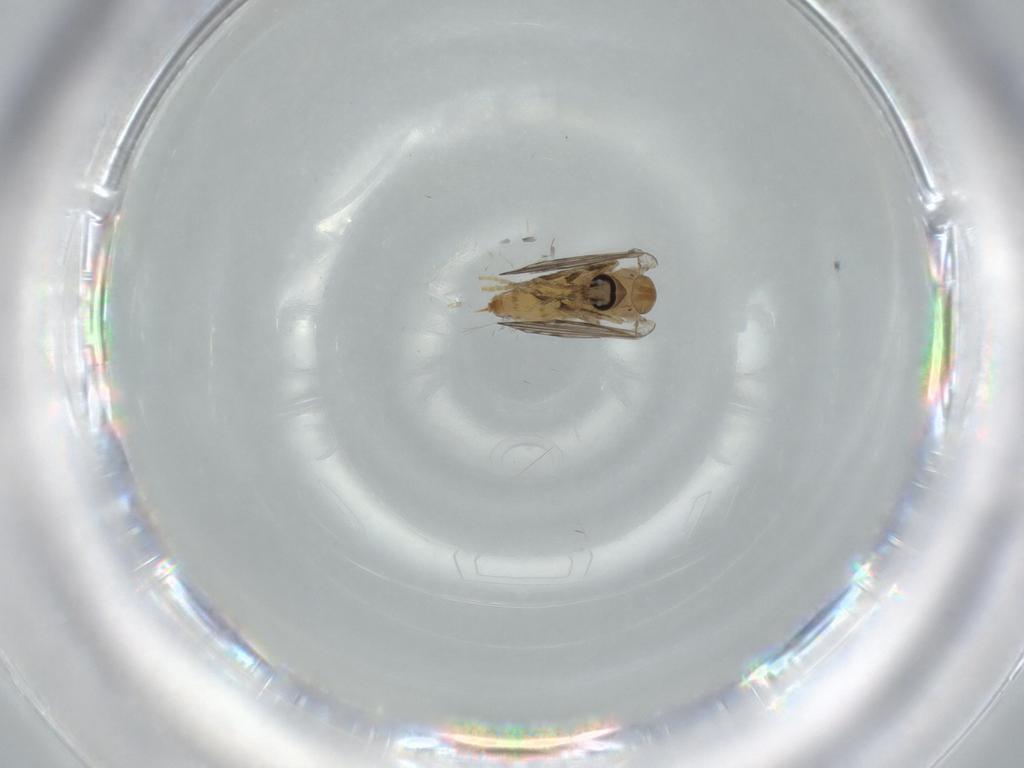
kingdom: Animalia
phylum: Arthropoda
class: Insecta
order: Diptera
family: Psychodidae
